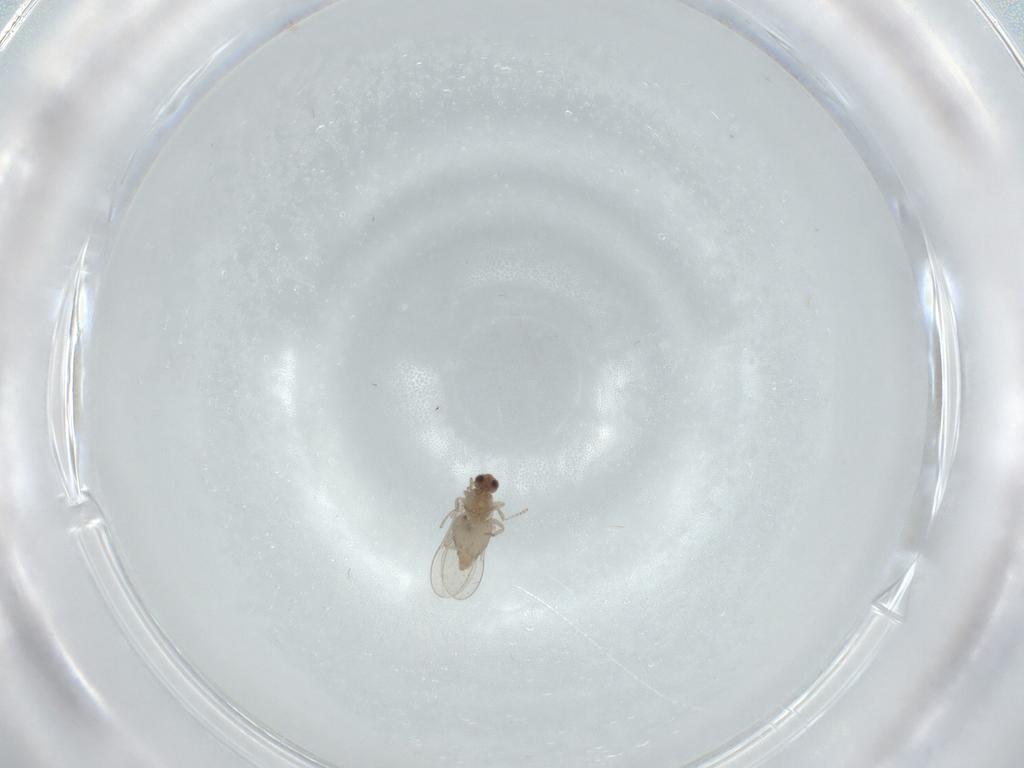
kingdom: Animalia
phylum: Arthropoda
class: Insecta
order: Diptera
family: Cecidomyiidae
